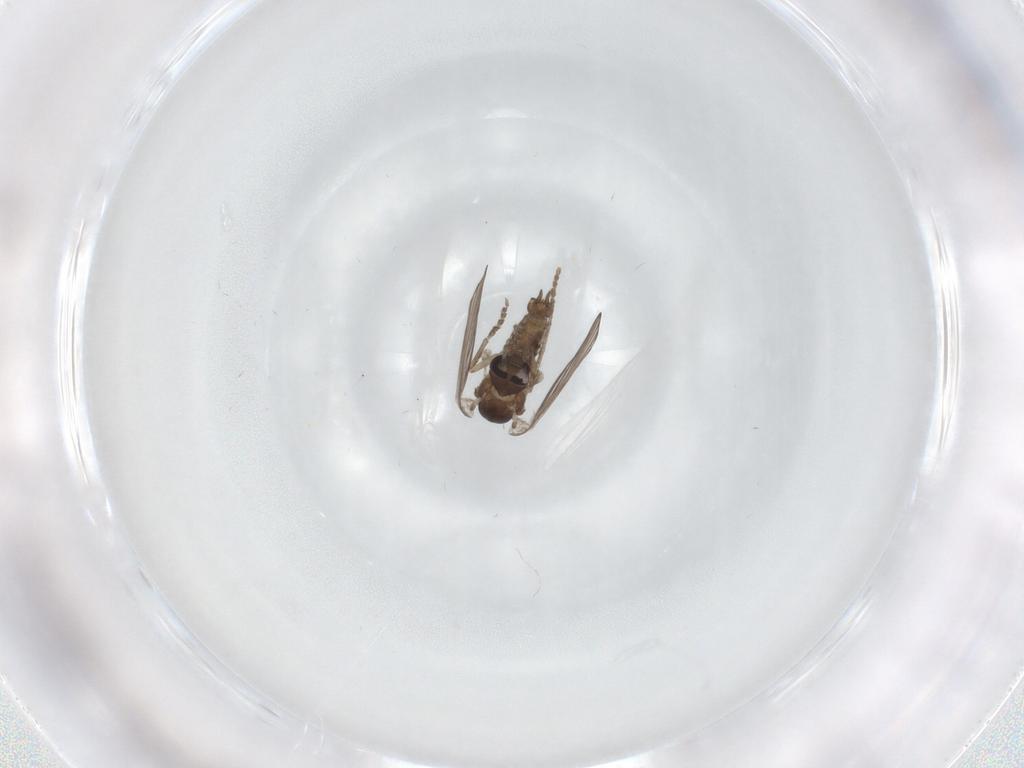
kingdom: Animalia
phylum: Arthropoda
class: Insecta
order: Diptera
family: Psychodidae
